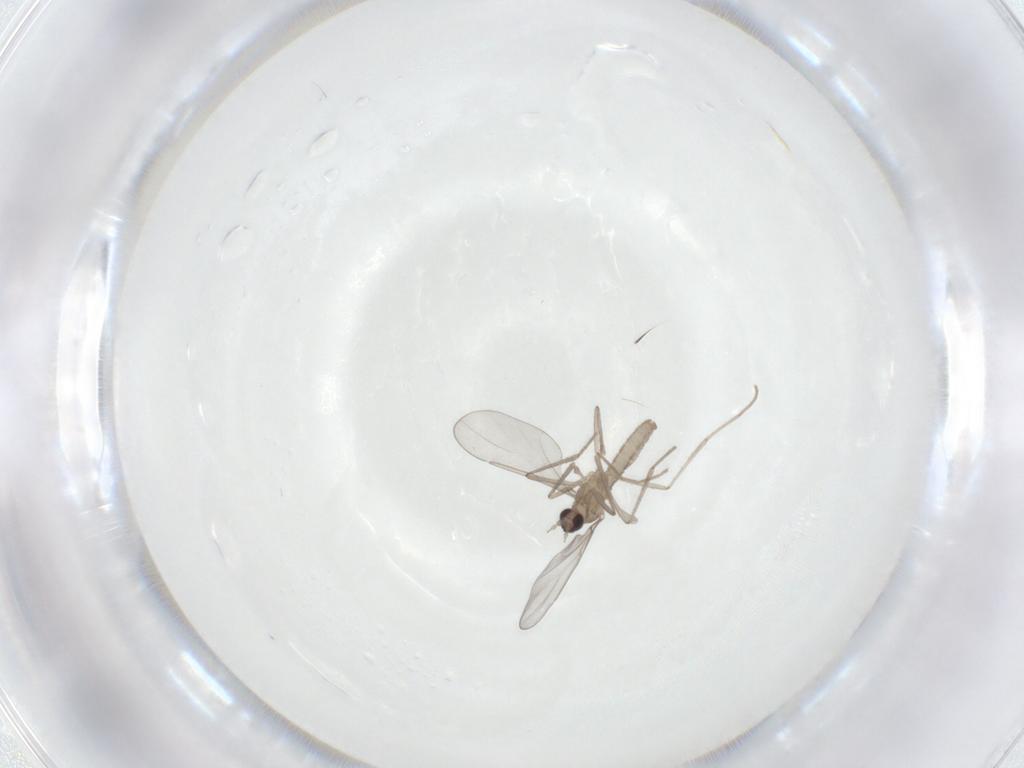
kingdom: Animalia
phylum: Arthropoda
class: Insecta
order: Diptera
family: Cecidomyiidae
